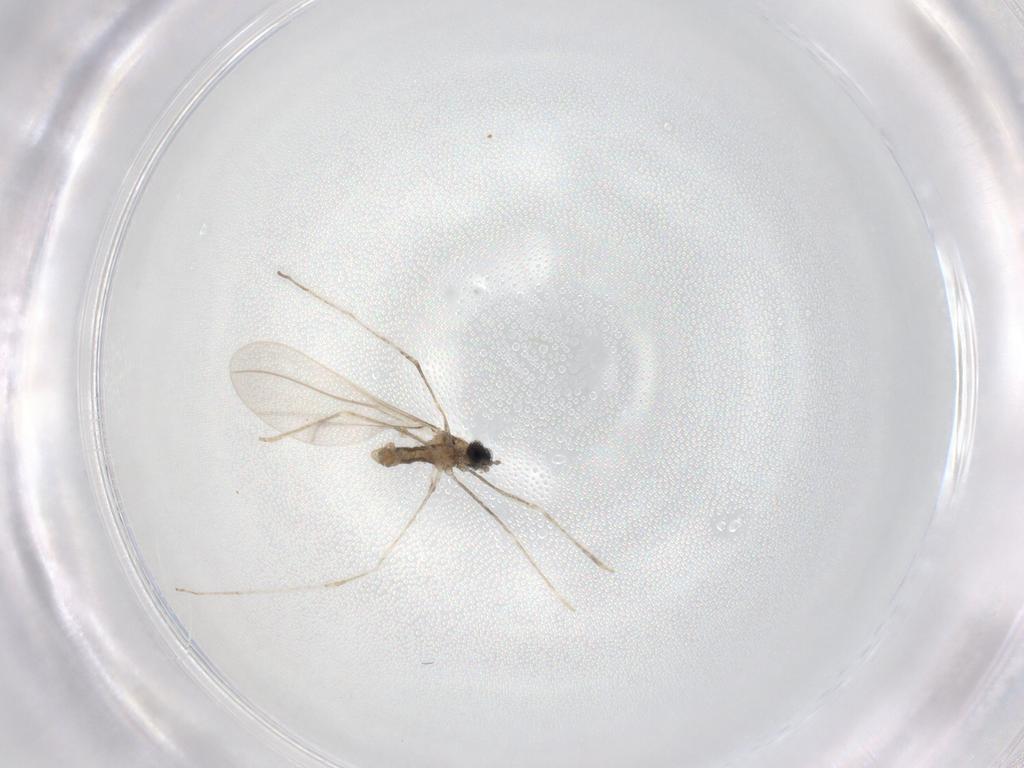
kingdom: Animalia
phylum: Arthropoda
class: Insecta
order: Diptera
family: Cecidomyiidae
